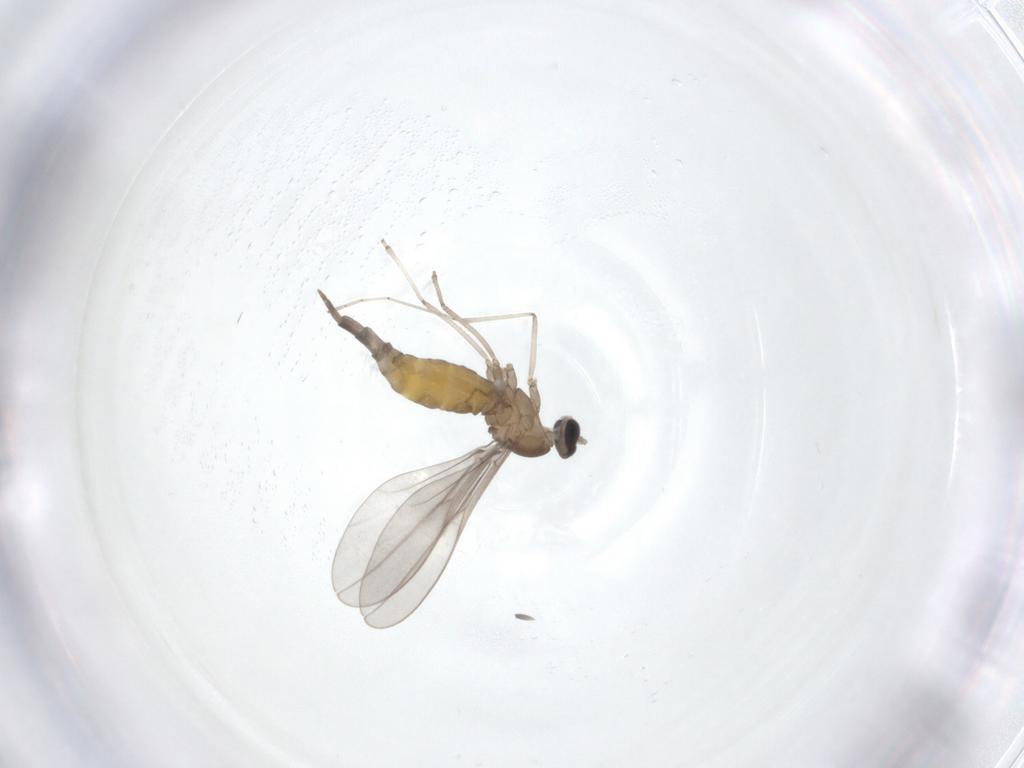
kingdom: Animalia
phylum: Arthropoda
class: Insecta
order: Diptera
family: Cecidomyiidae
